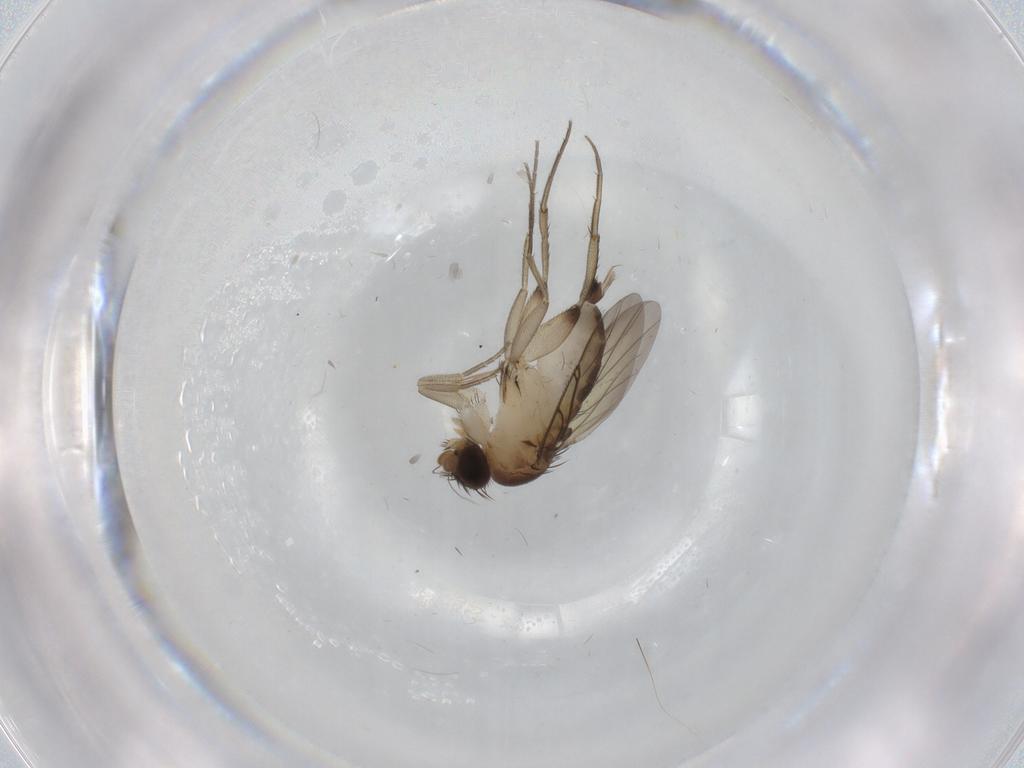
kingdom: Animalia
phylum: Arthropoda
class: Insecta
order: Diptera
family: Phoridae
